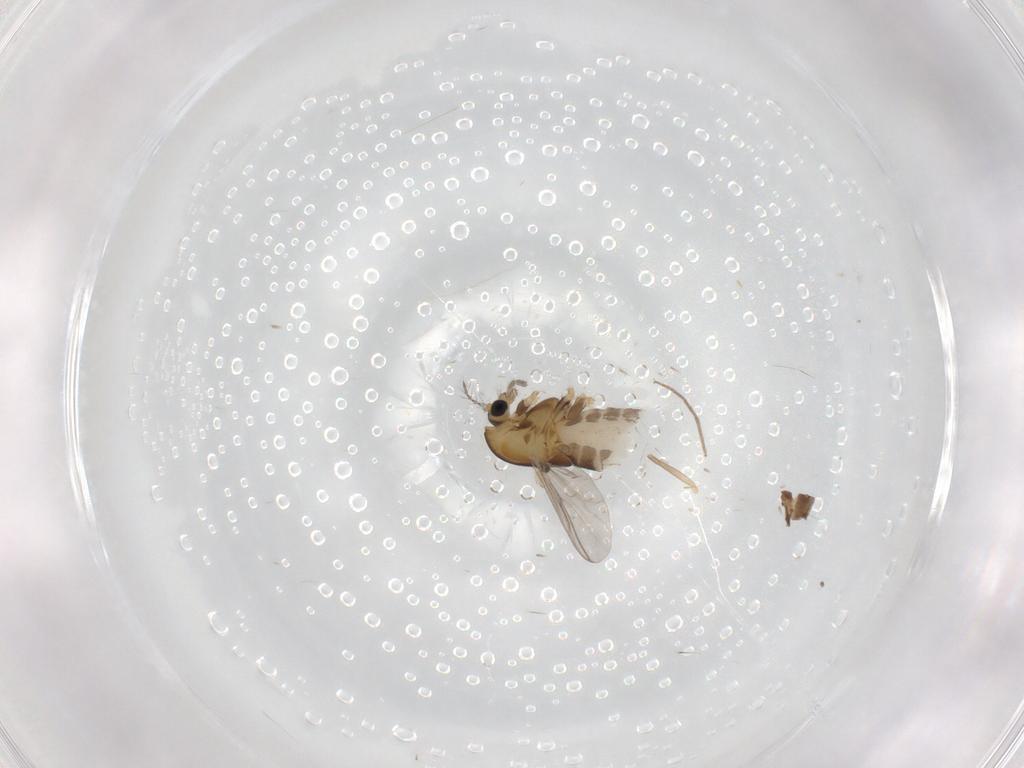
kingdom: Animalia
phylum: Arthropoda
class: Insecta
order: Diptera
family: Chironomidae
